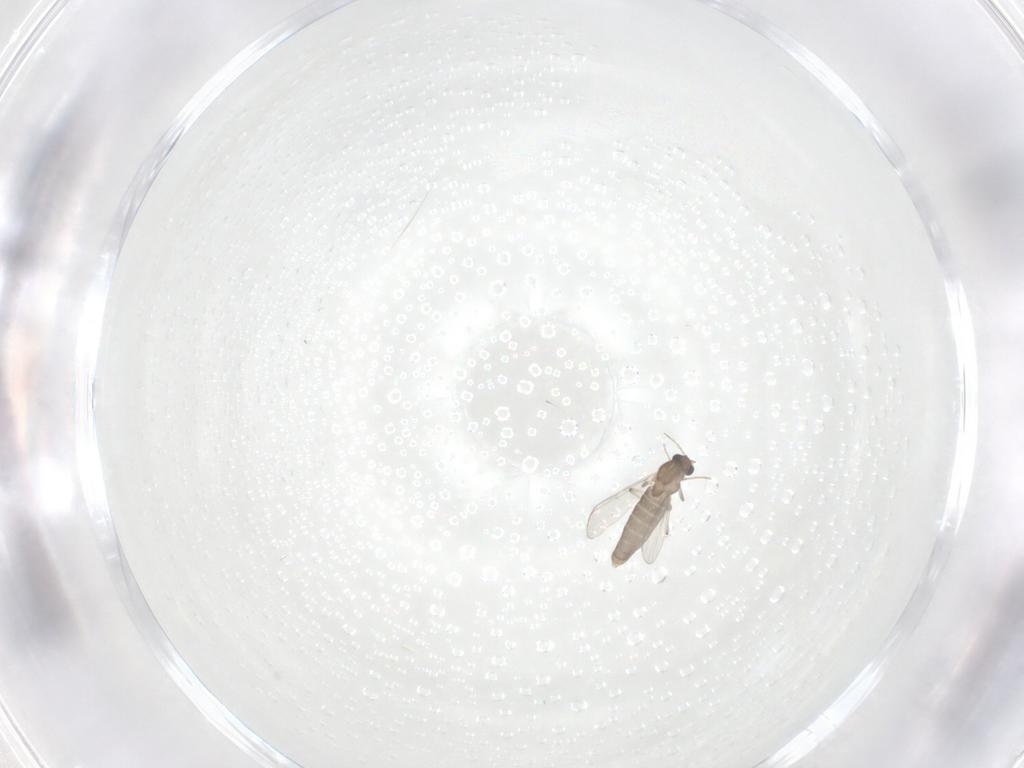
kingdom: Animalia
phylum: Arthropoda
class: Insecta
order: Diptera
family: Chironomidae
